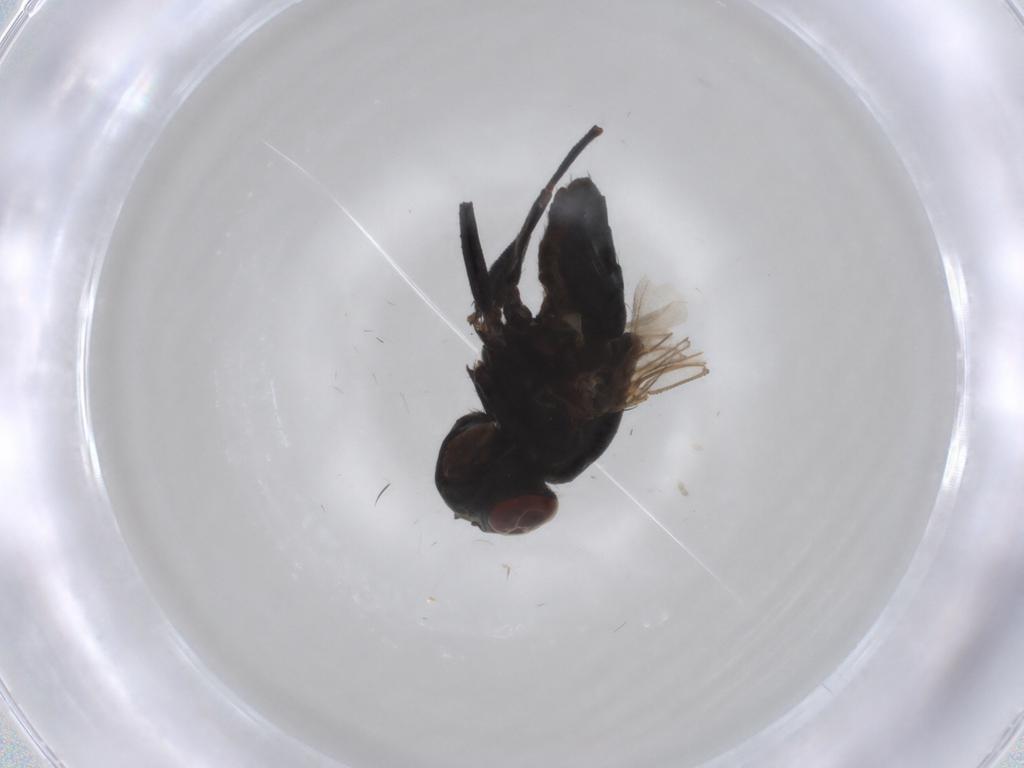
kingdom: Animalia
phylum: Arthropoda
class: Insecta
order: Diptera
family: Ephydridae
